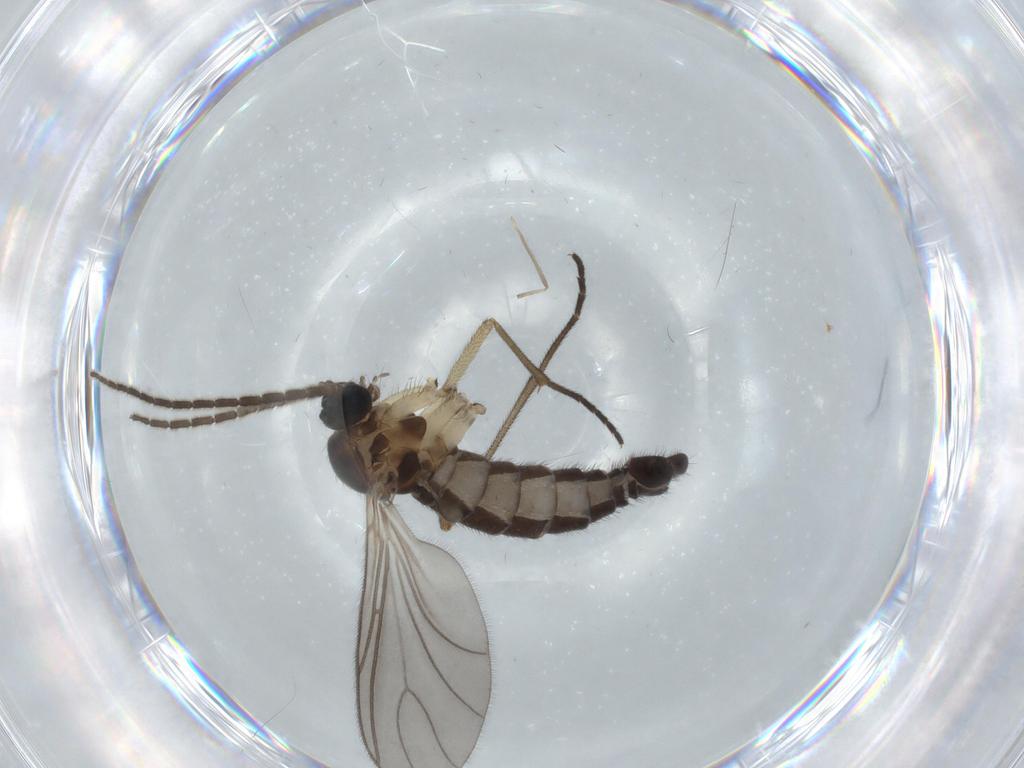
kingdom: Animalia
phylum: Arthropoda
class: Insecta
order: Diptera
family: Sciaridae
